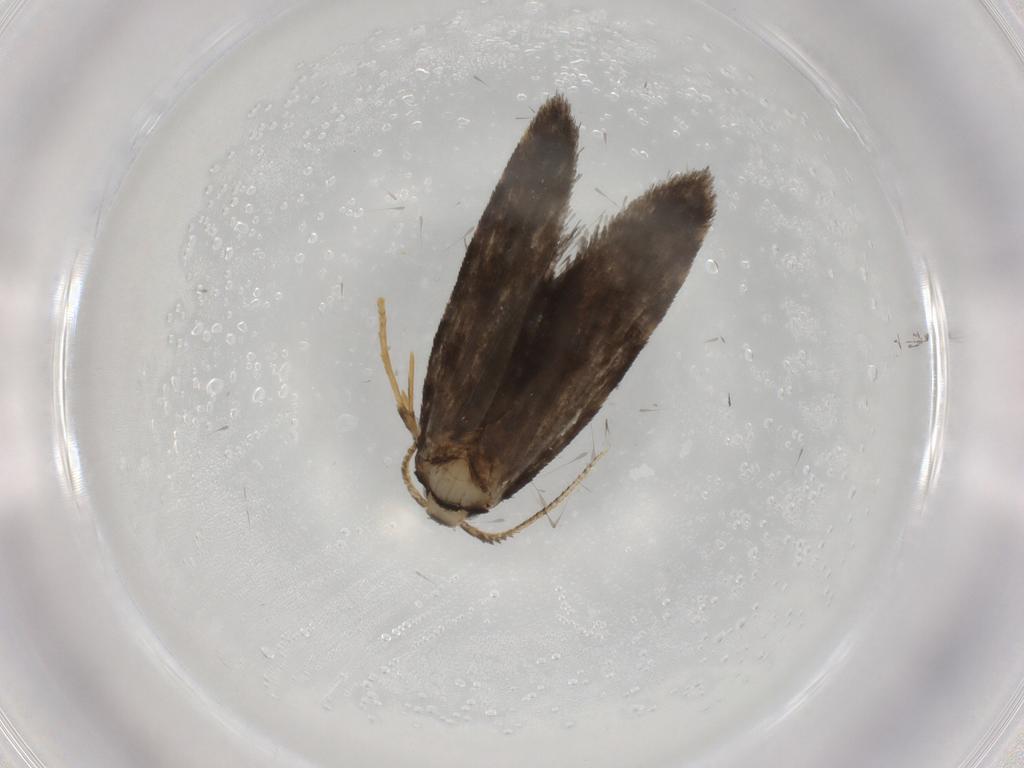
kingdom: Animalia
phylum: Arthropoda
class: Insecta
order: Lepidoptera
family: Psychidae
